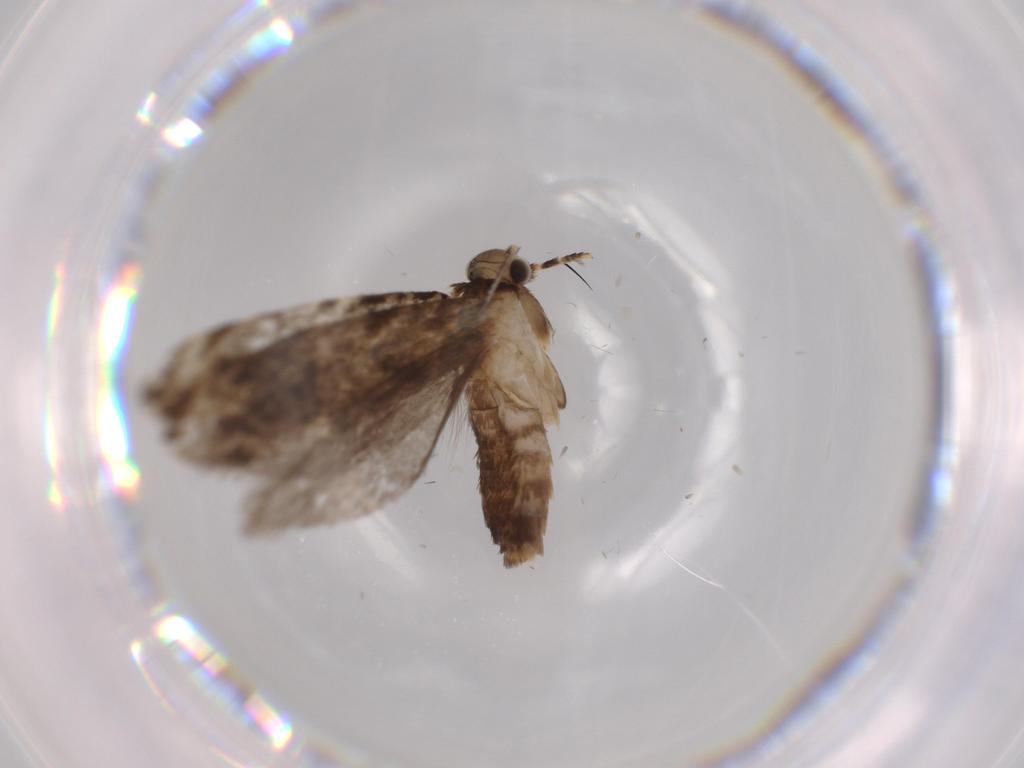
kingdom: Animalia
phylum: Arthropoda
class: Insecta
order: Lepidoptera
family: Tineidae
